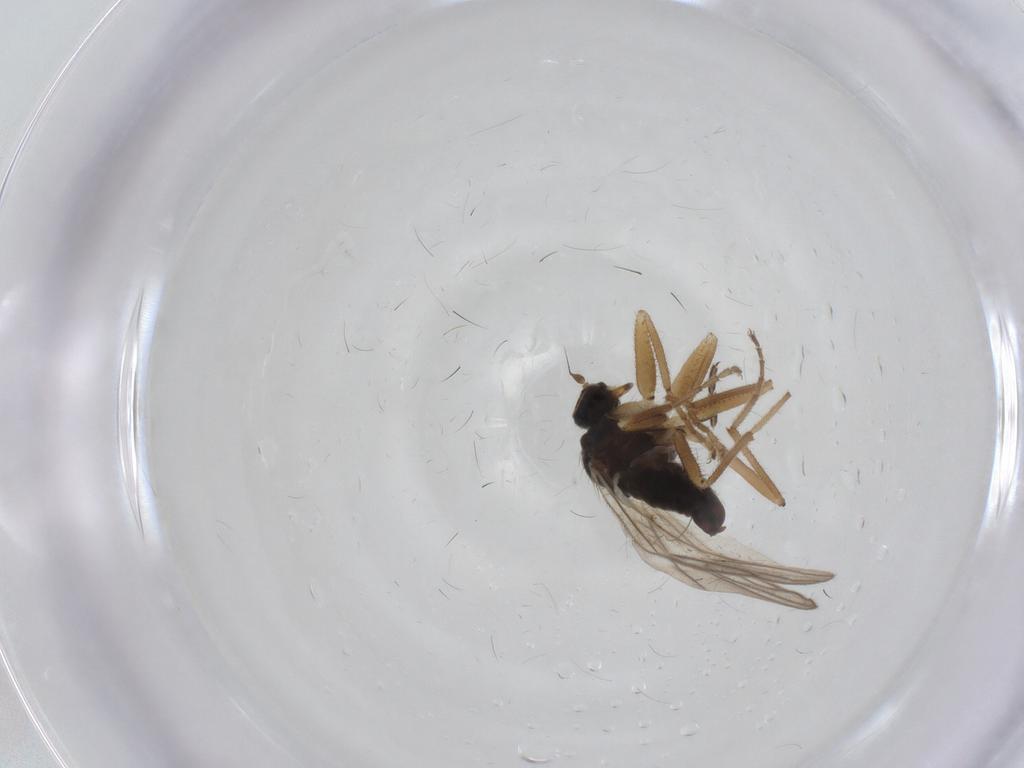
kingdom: Animalia
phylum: Arthropoda
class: Insecta
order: Diptera
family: Hybotidae
